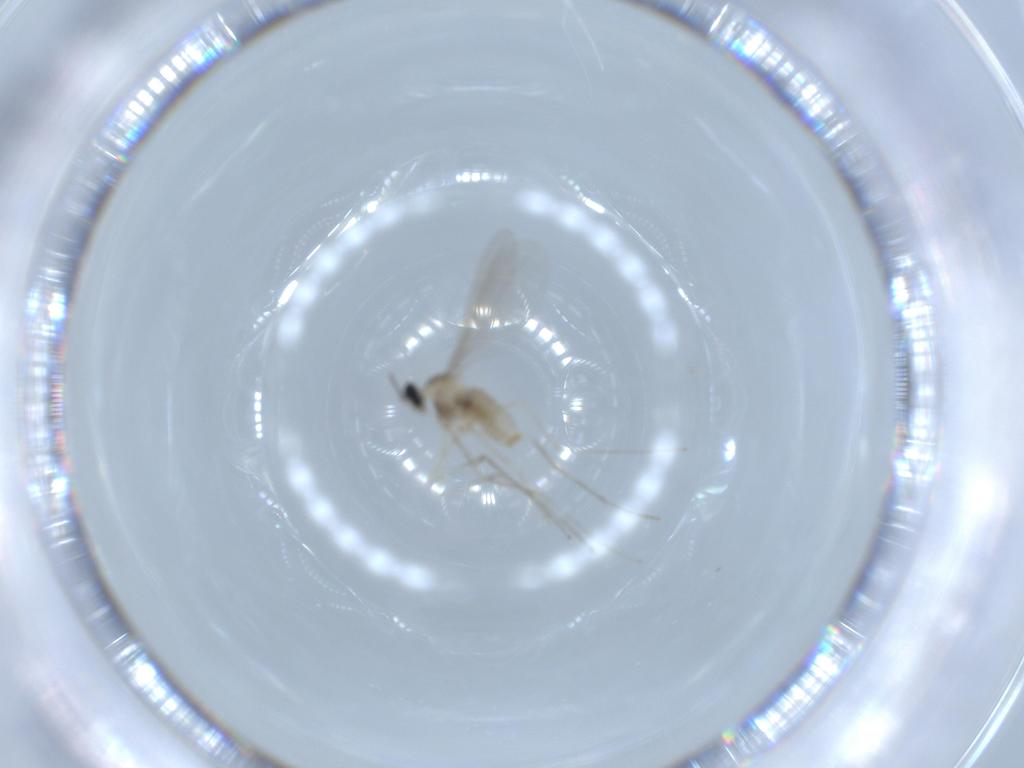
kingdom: Animalia
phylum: Arthropoda
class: Insecta
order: Diptera
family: Cecidomyiidae
